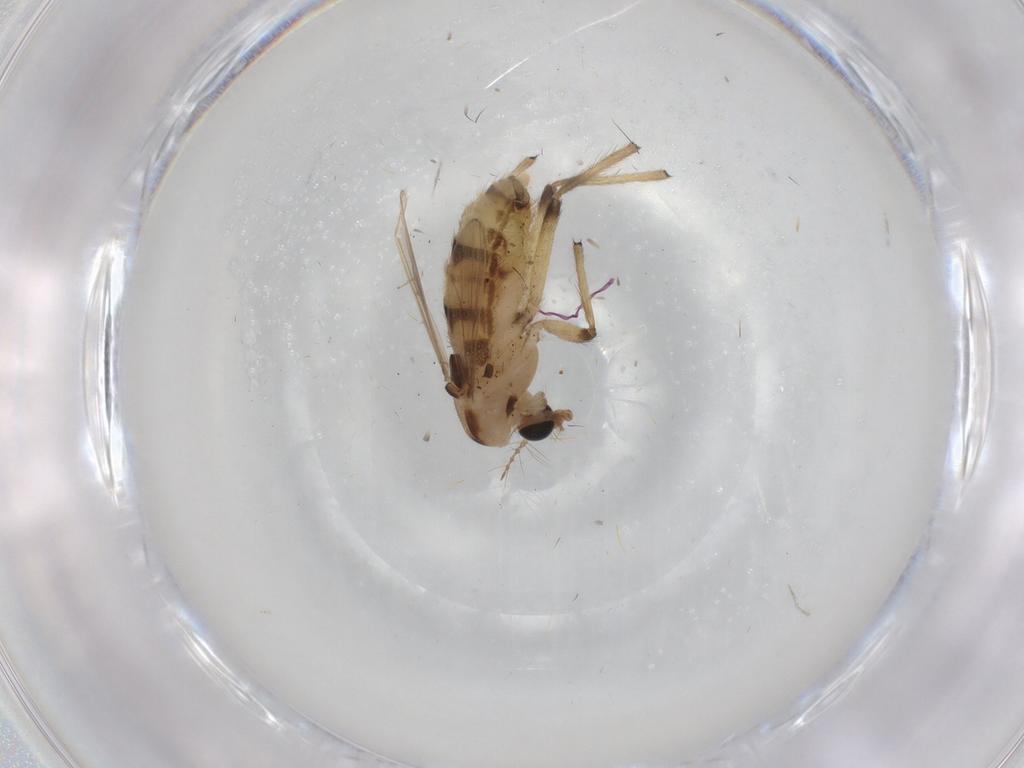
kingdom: Animalia
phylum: Arthropoda
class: Insecta
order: Diptera
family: Chironomidae
